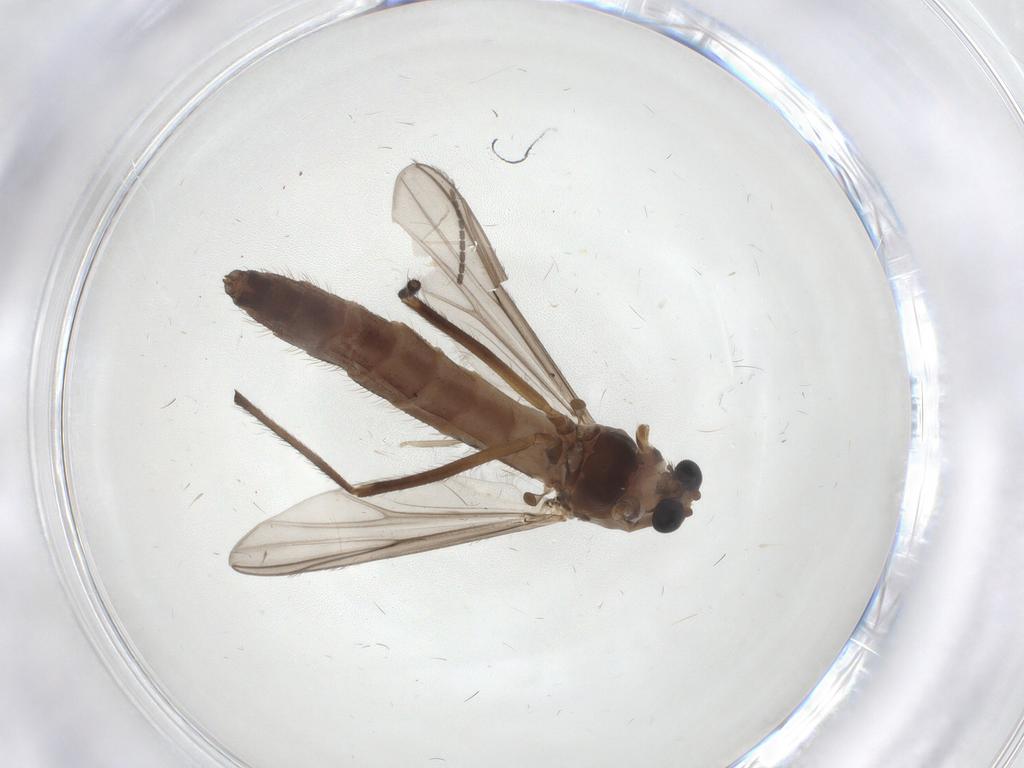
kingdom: Animalia
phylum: Arthropoda
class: Insecta
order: Diptera
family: Chironomidae
